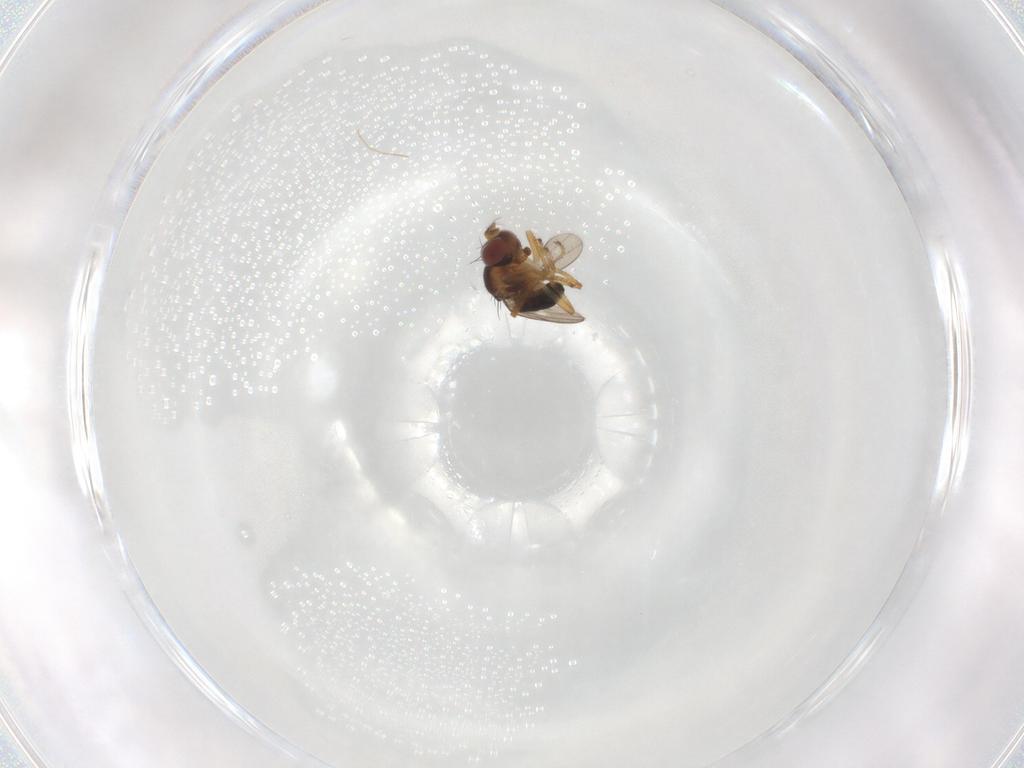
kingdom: Animalia
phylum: Arthropoda
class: Insecta
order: Diptera
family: Ephydridae
